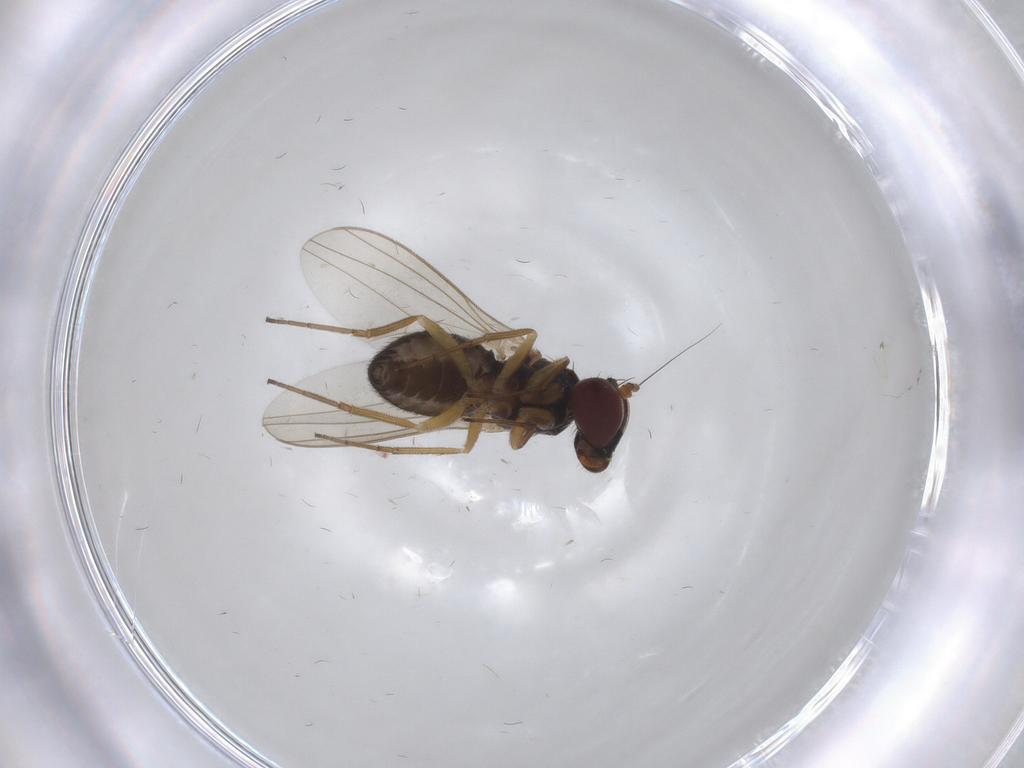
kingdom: Animalia
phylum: Arthropoda
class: Insecta
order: Diptera
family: Dolichopodidae
